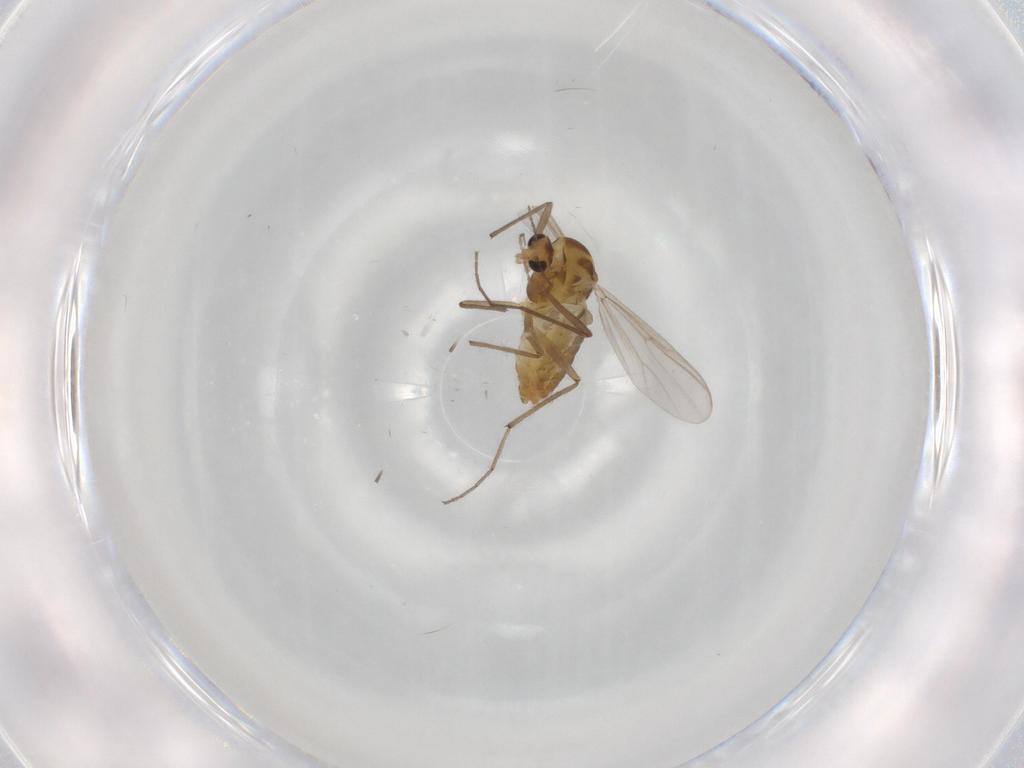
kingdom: Animalia
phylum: Arthropoda
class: Insecta
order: Diptera
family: Chironomidae
